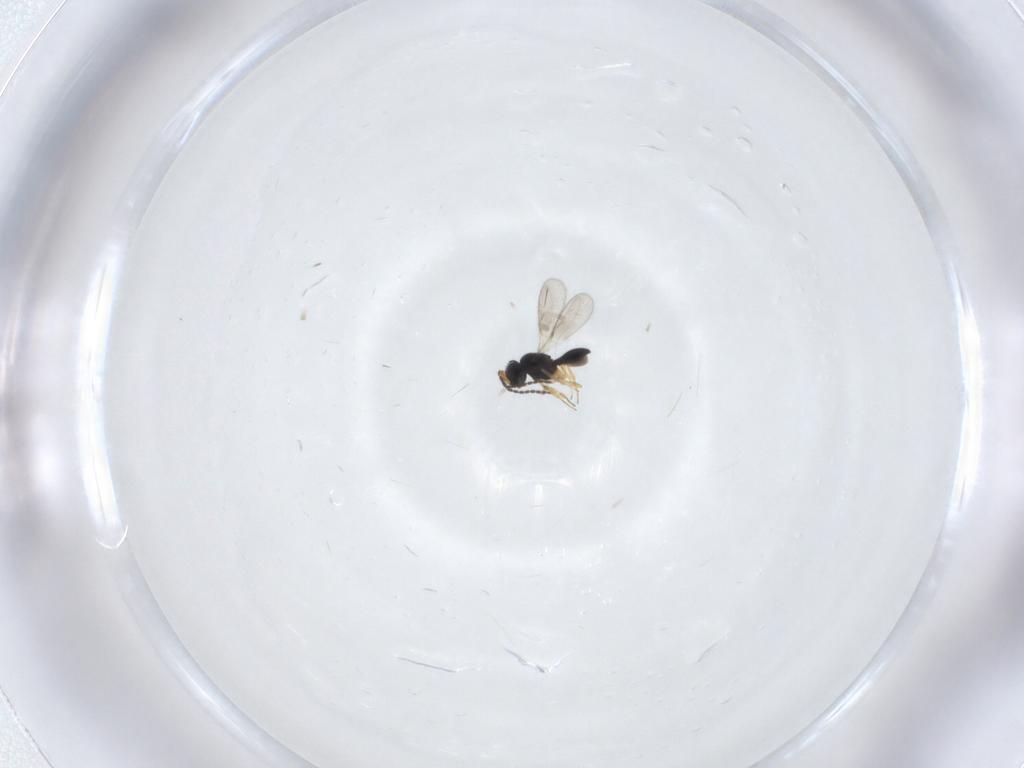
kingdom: Animalia
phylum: Arthropoda
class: Insecta
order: Hymenoptera
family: Scelionidae
